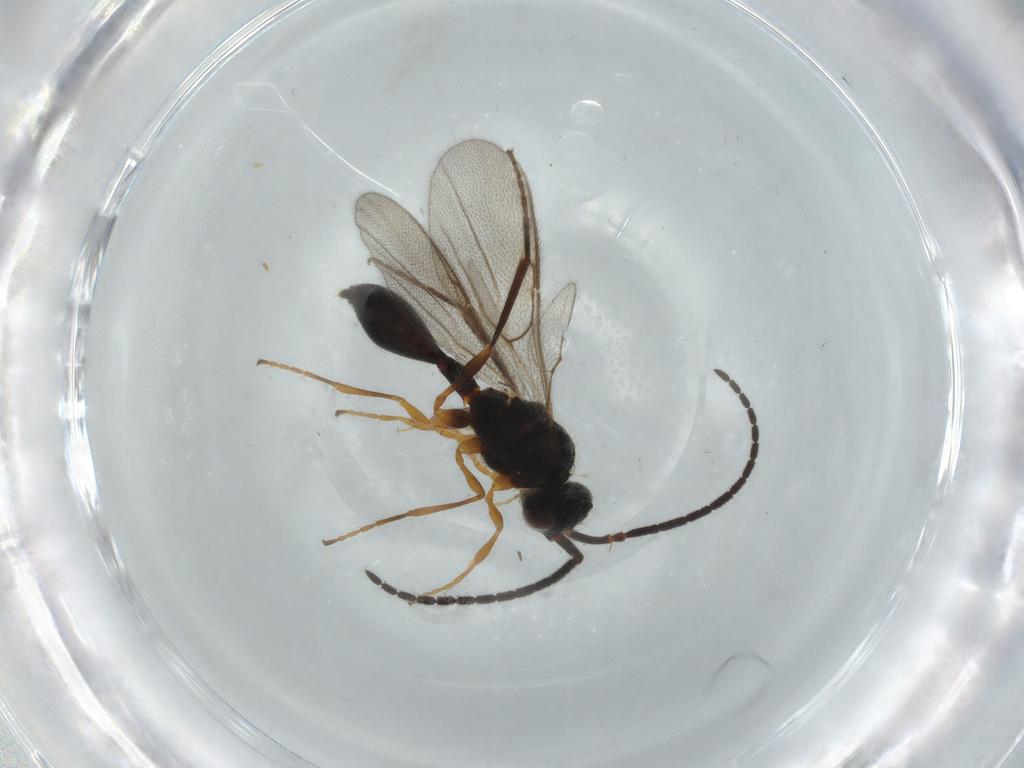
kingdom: Animalia
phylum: Arthropoda
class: Insecta
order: Hymenoptera
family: Diapriidae
